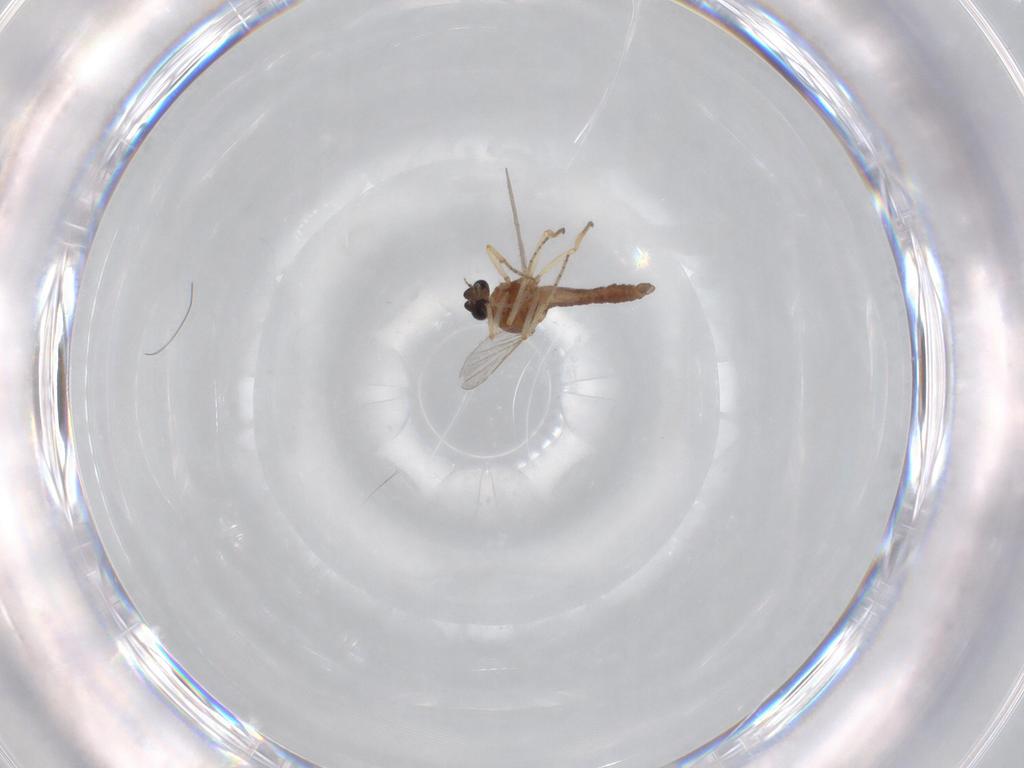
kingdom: Animalia
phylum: Arthropoda
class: Insecta
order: Diptera
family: Ceratopogonidae
